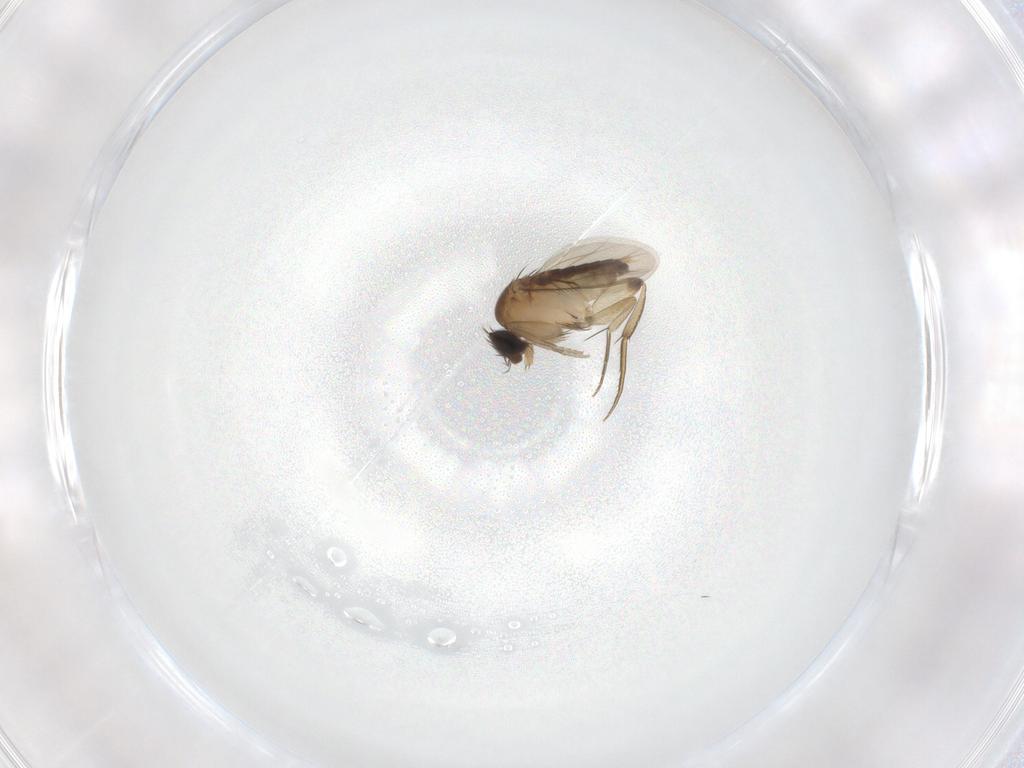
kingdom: Animalia
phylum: Arthropoda
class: Insecta
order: Diptera
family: Phoridae
